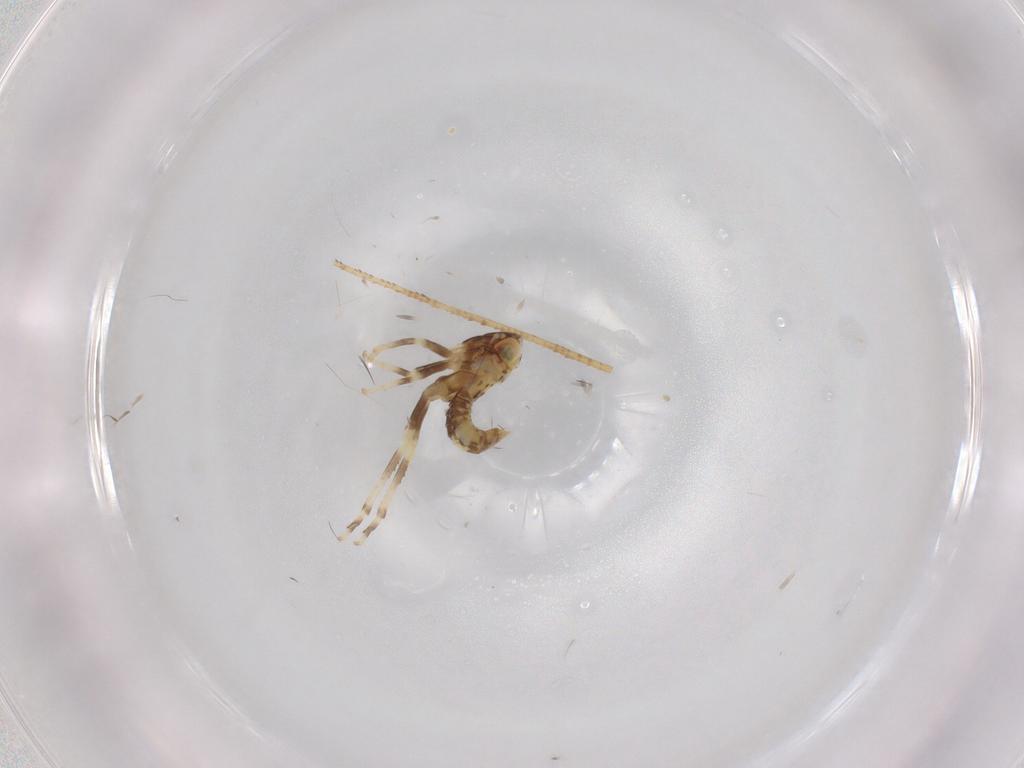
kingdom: Animalia
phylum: Arthropoda
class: Insecta
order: Hemiptera
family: Cicadellidae
